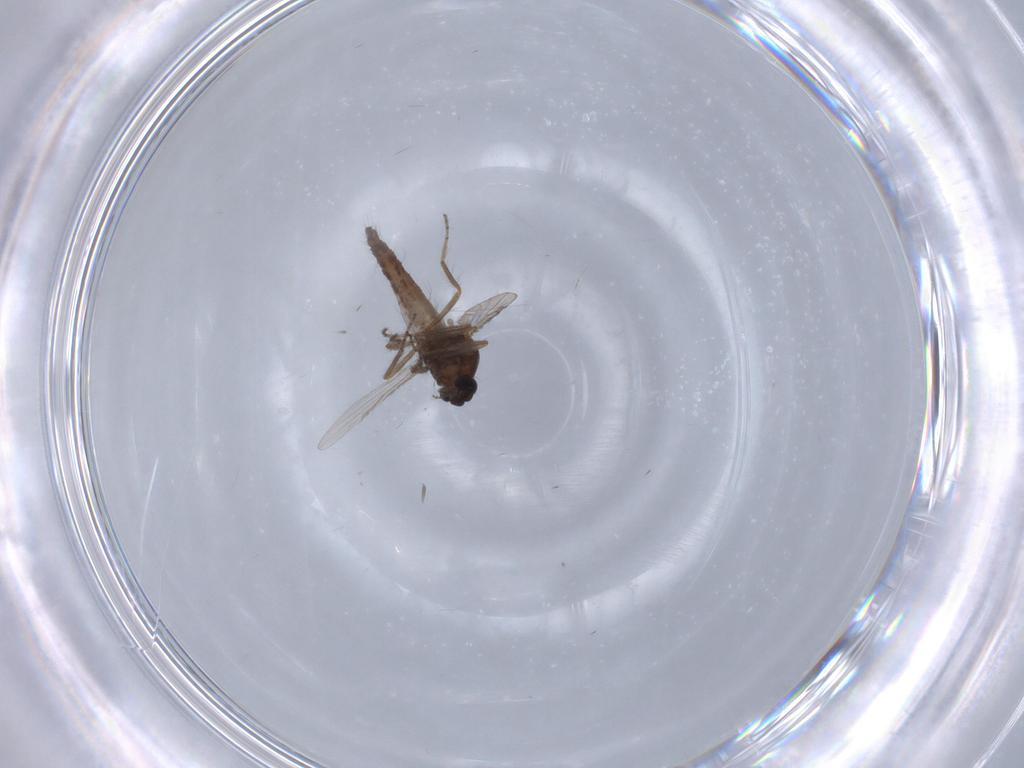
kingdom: Animalia
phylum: Arthropoda
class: Insecta
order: Diptera
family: Ceratopogonidae
